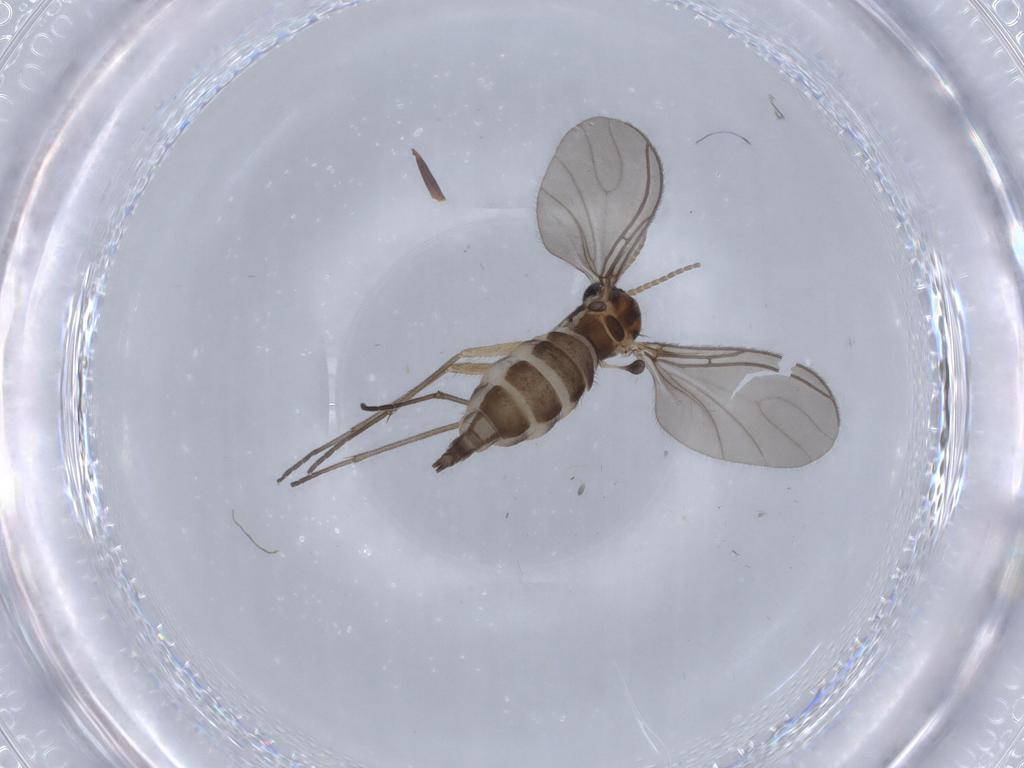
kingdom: Animalia
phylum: Arthropoda
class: Insecta
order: Diptera
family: Sciaridae
